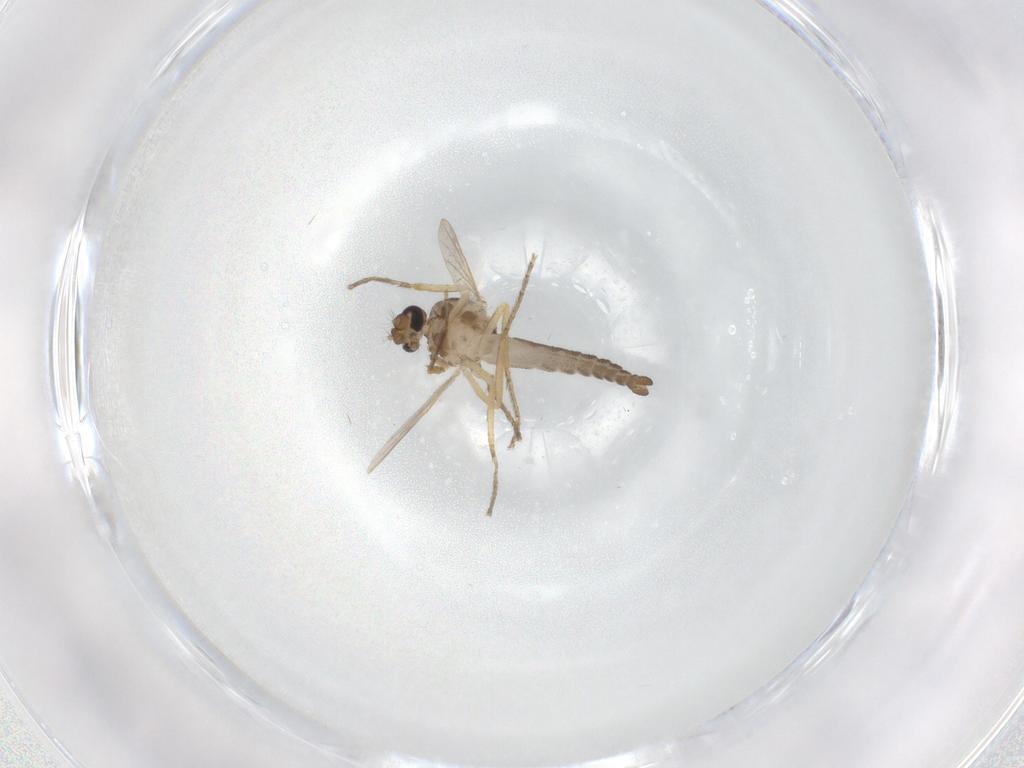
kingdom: Animalia
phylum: Arthropoda
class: Insecta
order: Diptera
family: Ceratopogonidae
